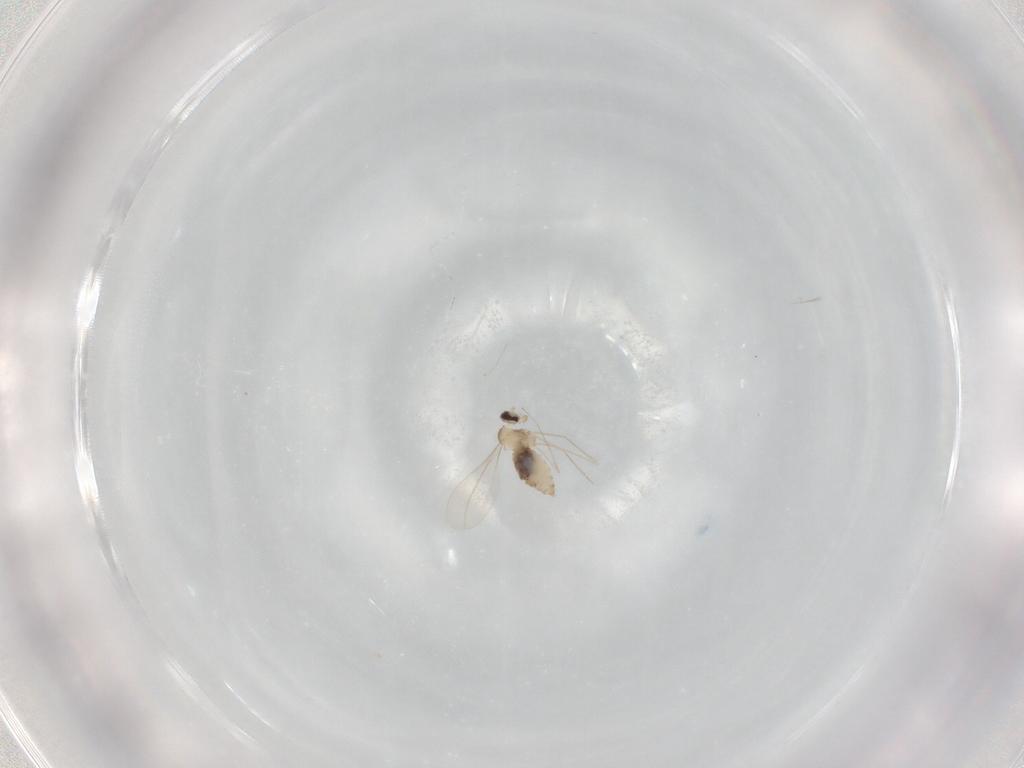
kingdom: Animalia
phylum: Arthropoda
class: Insecta
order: Diptera
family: Cecidomyiidae
